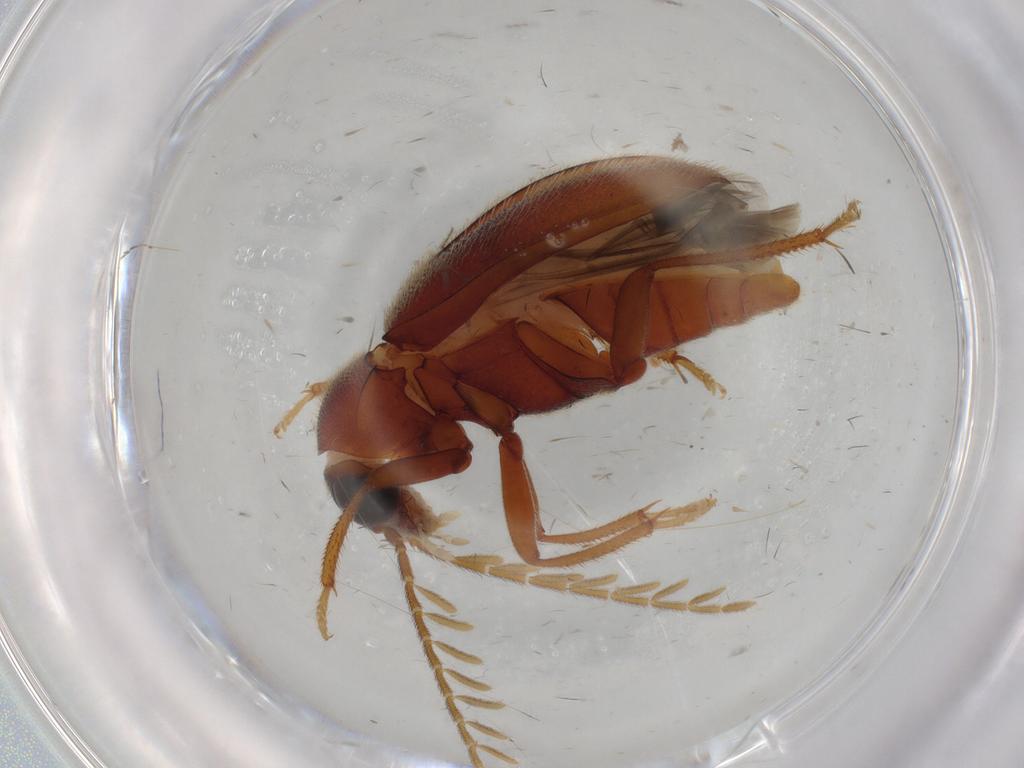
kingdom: Animalia
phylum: Arthropoda
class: Insecta
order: Coleoptera
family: Ptilodactylidae
